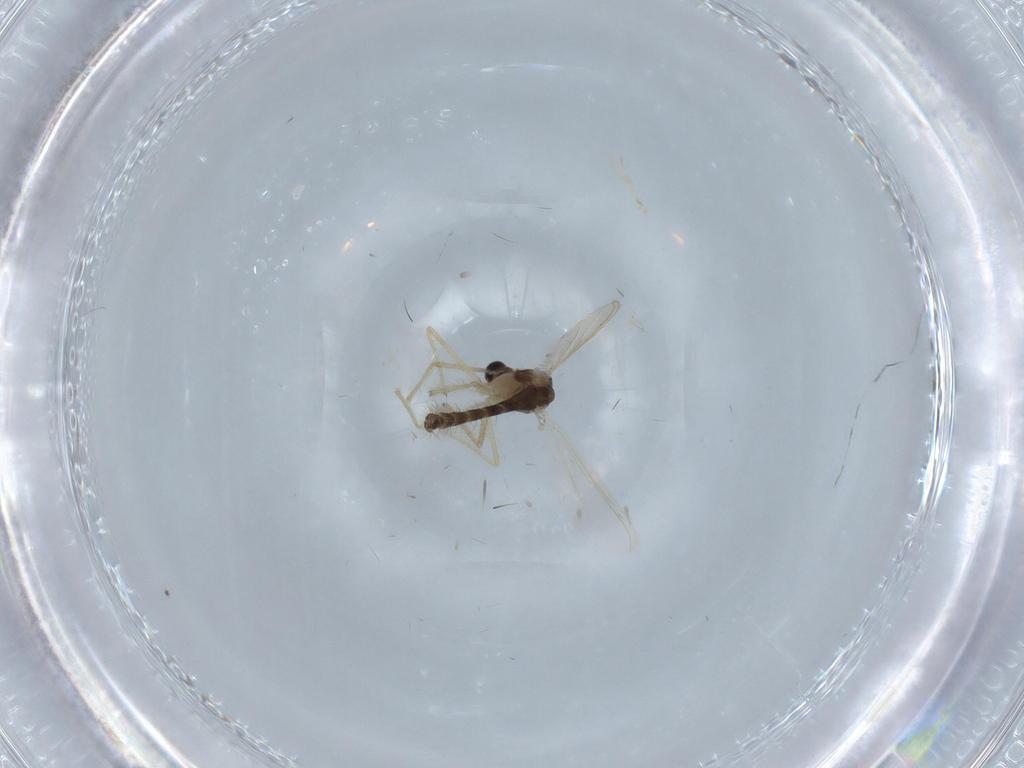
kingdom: Animalia
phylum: Arthropoda
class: Insecta
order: Diptera
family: Chironomidae
